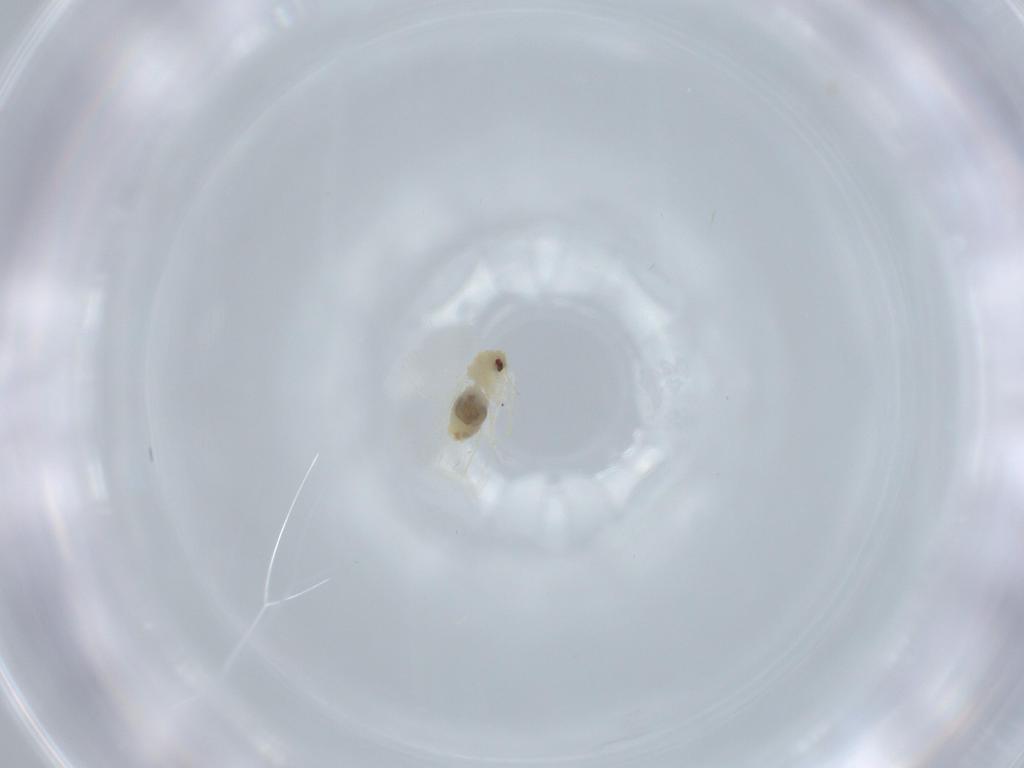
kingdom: Animalia
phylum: Arthropoda
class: Insecta
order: Hemiptera
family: Aleyrodidae
